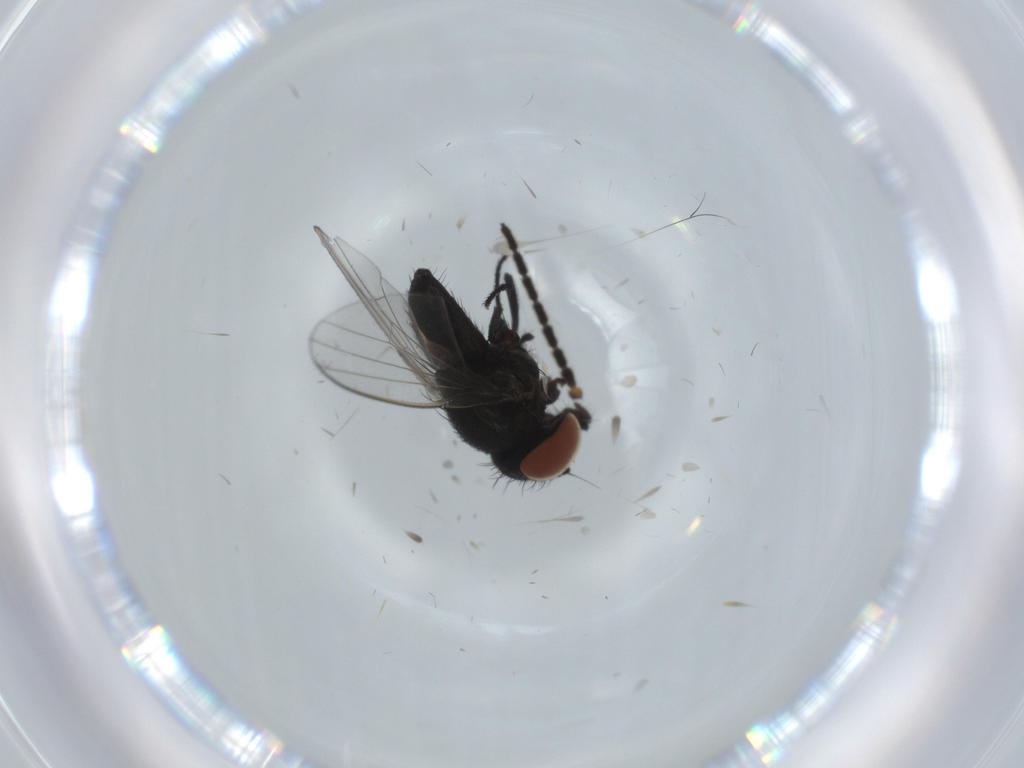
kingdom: Animalia
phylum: Arthropoda
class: Insecta
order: Diptera
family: Milichiidae
